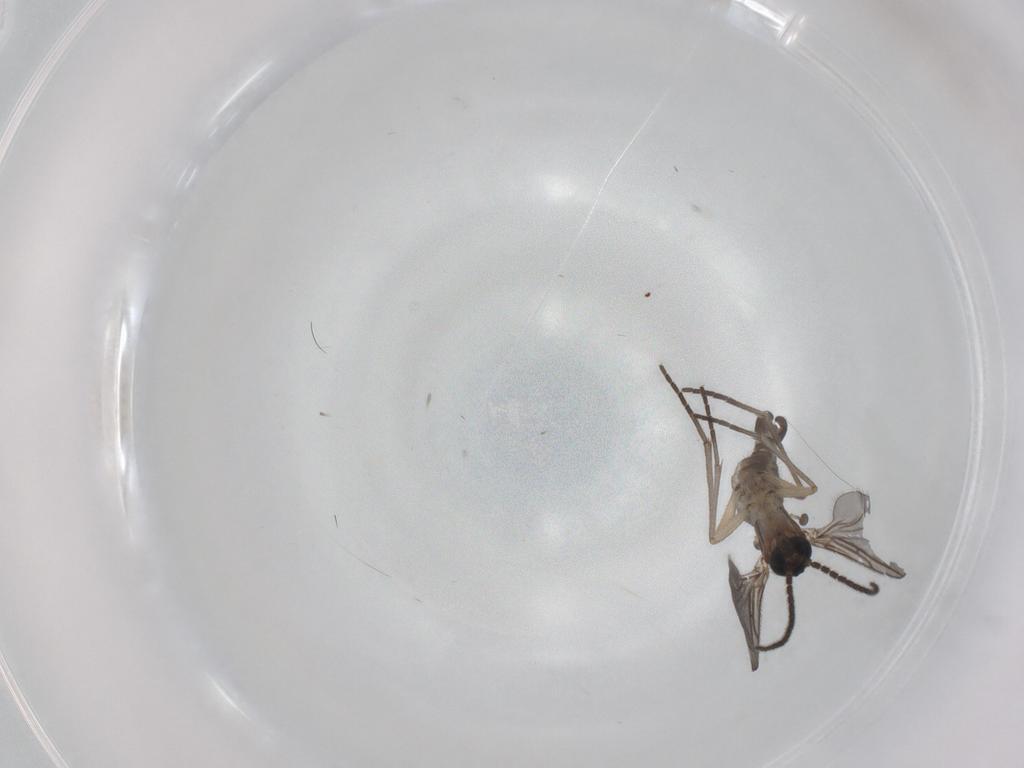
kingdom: Animalia
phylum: Arthropoda
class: Insecta
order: Diptera
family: Sciaridae
